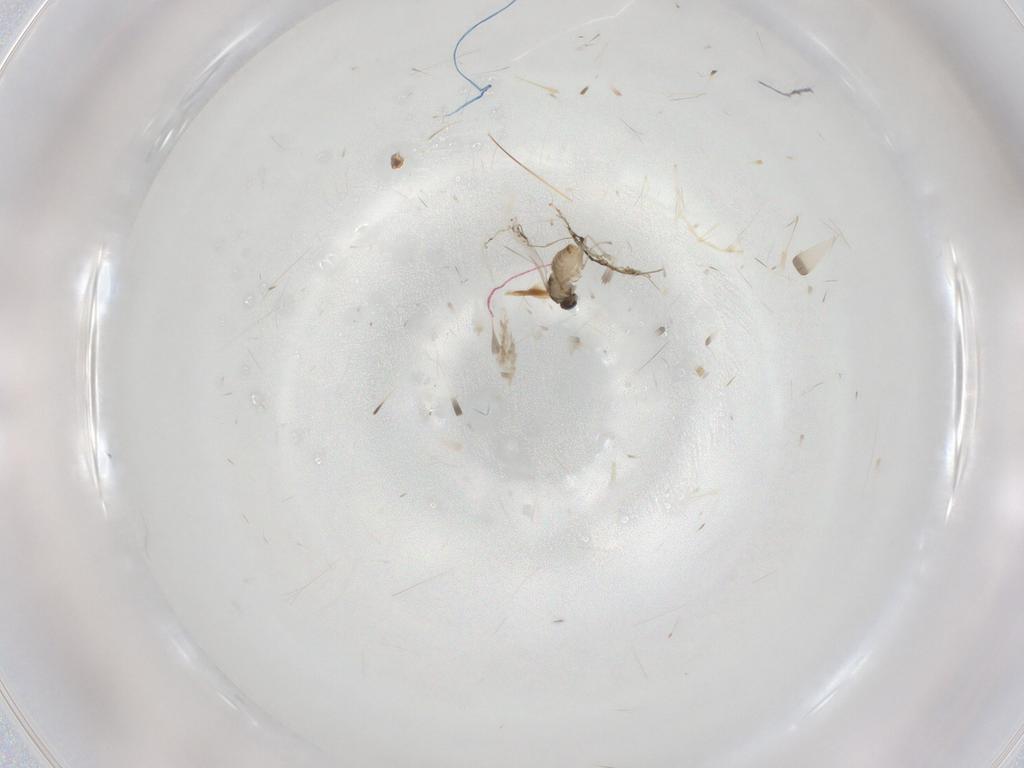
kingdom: Animalia
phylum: Arthropoda
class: Insecta
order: Diptera
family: Cecidomyiidae
